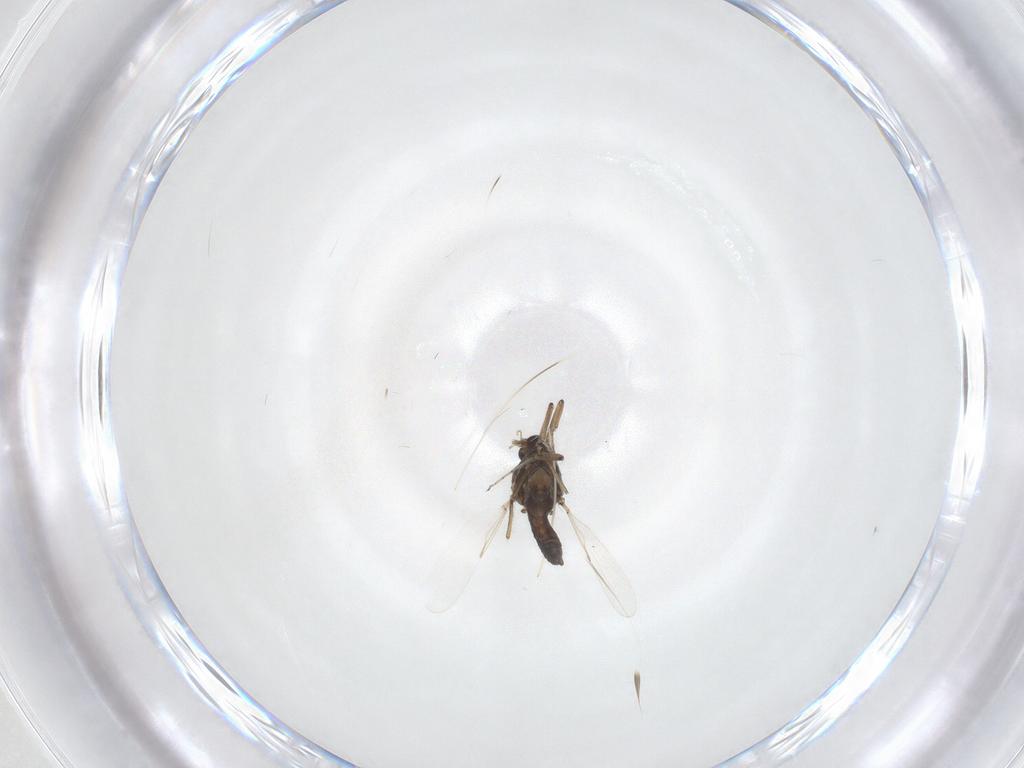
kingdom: Animalia
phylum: Arthropoda
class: Insecta
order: Diptera
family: Ceratopogonidae
